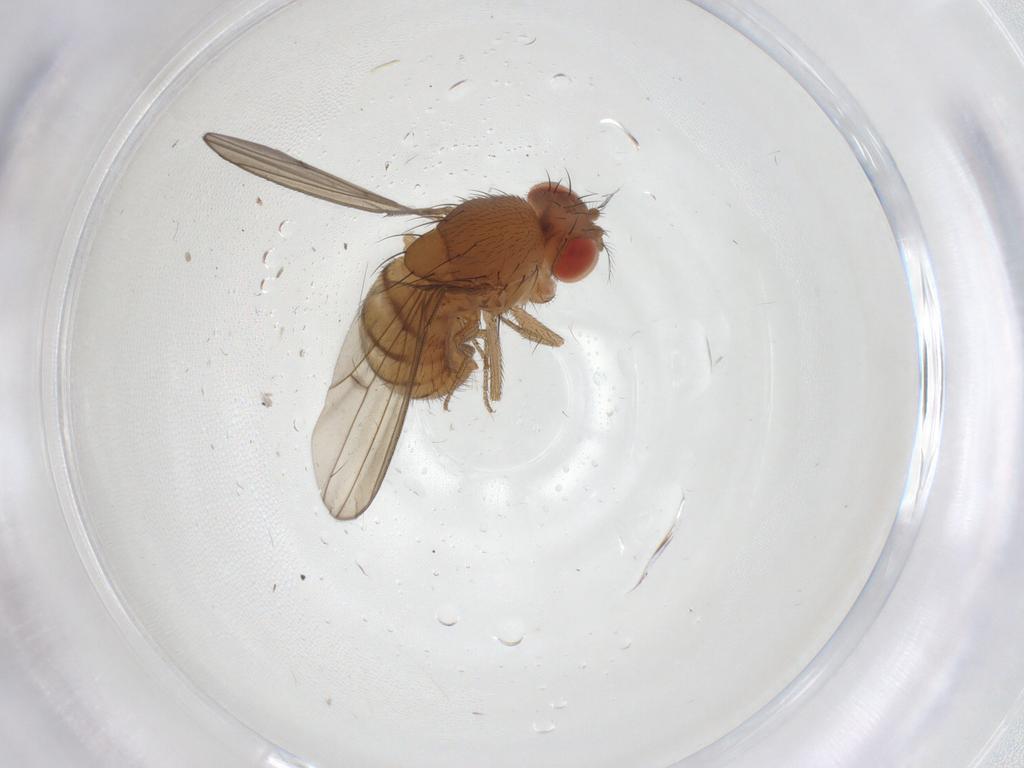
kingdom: Animalia
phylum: Arthropoda
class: Insecta
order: Diptera
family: Drosophilidae
